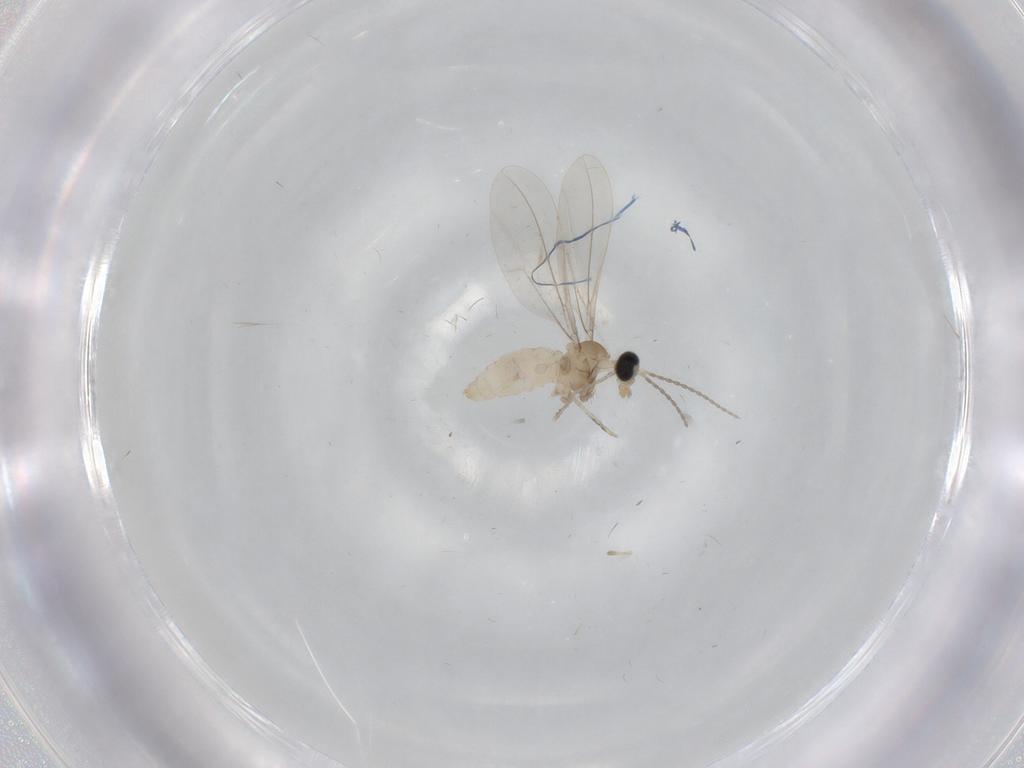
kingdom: Animalia
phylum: Arthropoda
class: Insecta
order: Diptera
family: Cecidomyiidae
